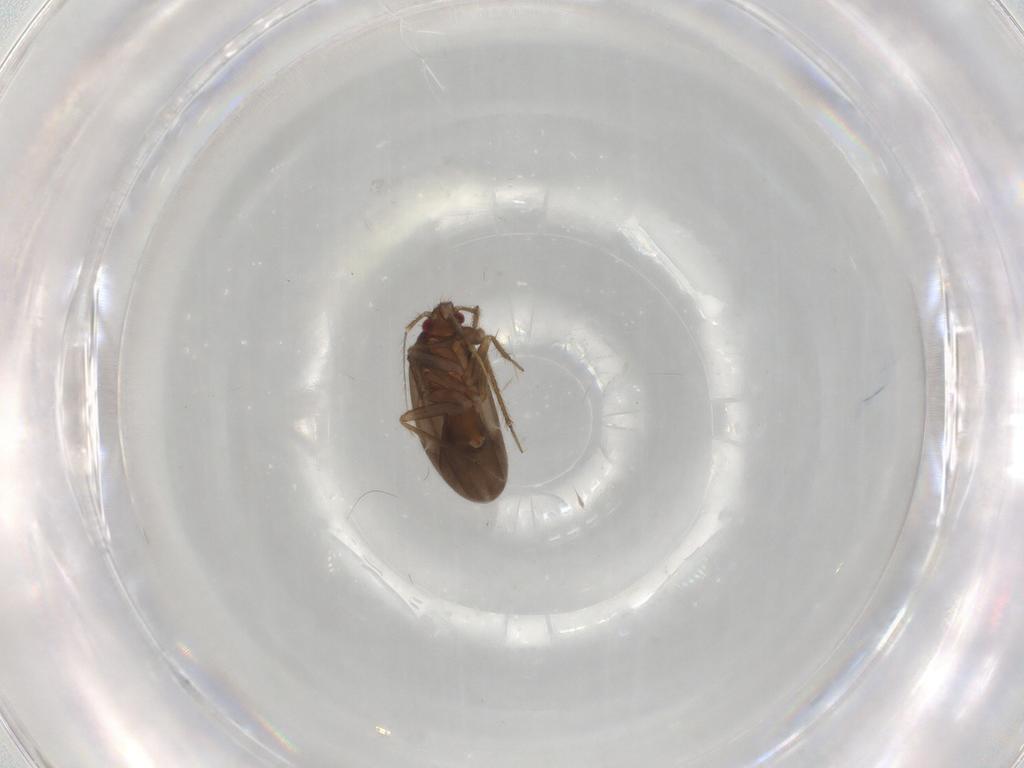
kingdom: Animalia
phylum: Arthropoda
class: Insecta
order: Hemiptera
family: Ceratocombidae
